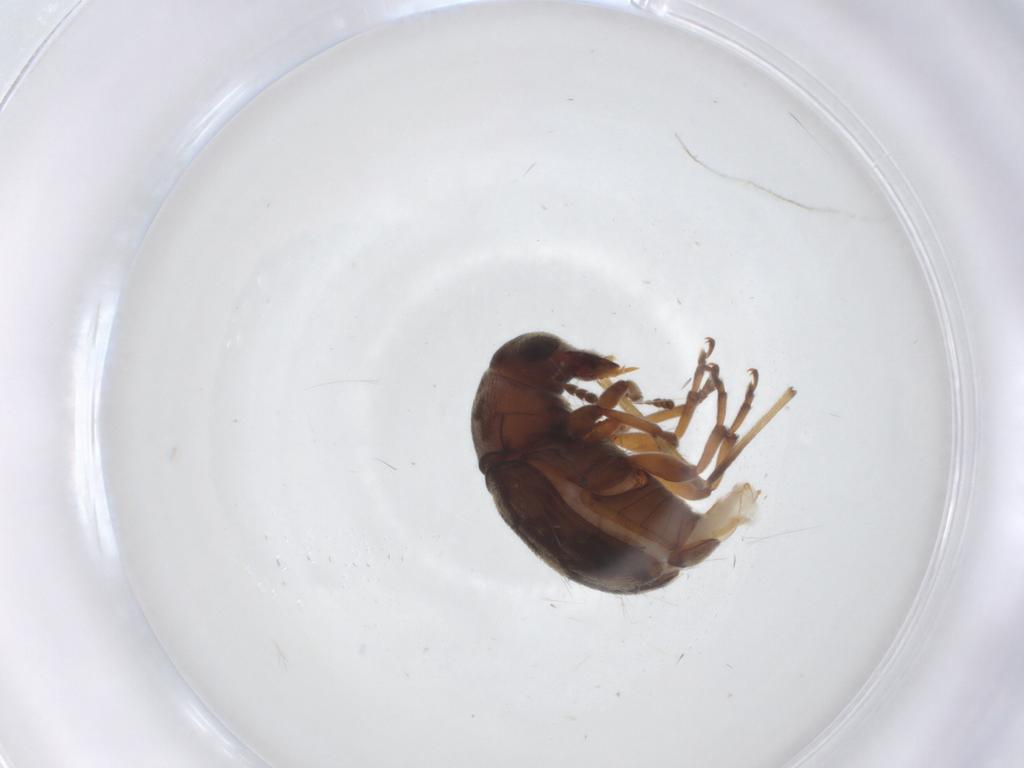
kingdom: Animalia
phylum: Arthropoda
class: Insecta
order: Coleoptera
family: Anthribidae
